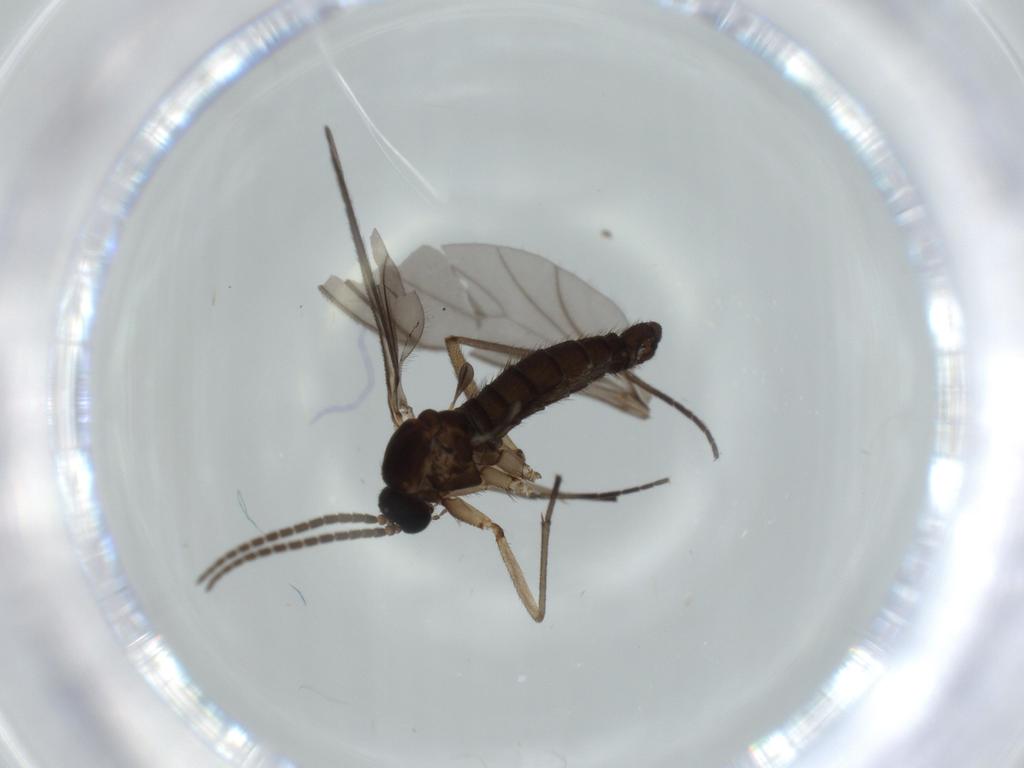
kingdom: Animalia
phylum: Arthropoda
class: Insecta
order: Diptera
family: Sciaridae
